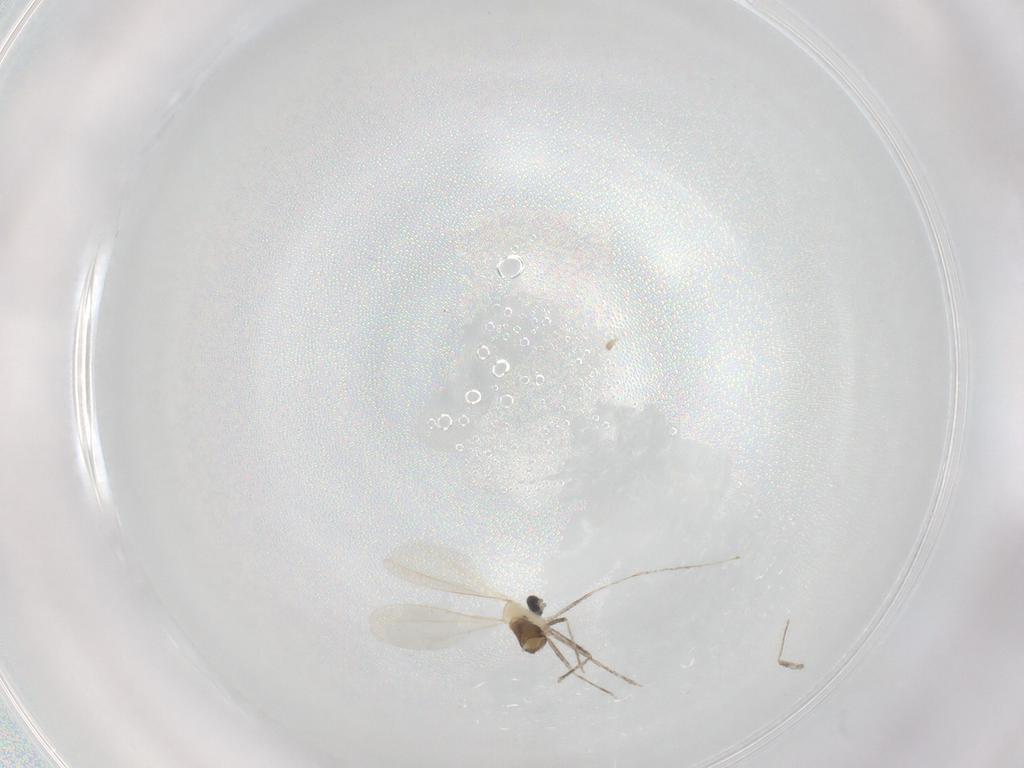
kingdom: Animalia
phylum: Arthropoda
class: Insecta
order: Diptera
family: Cecidomyiidae
